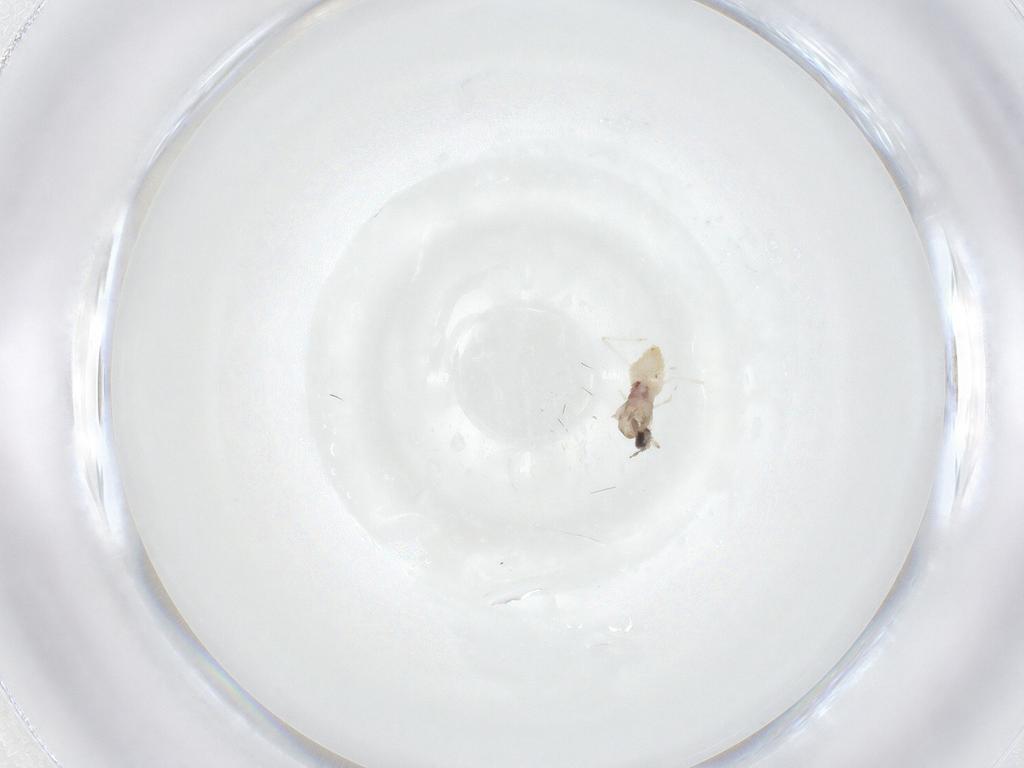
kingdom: Animalia
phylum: Arthropoda
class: Insecta
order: Diptera
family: Cecidomyiidae
